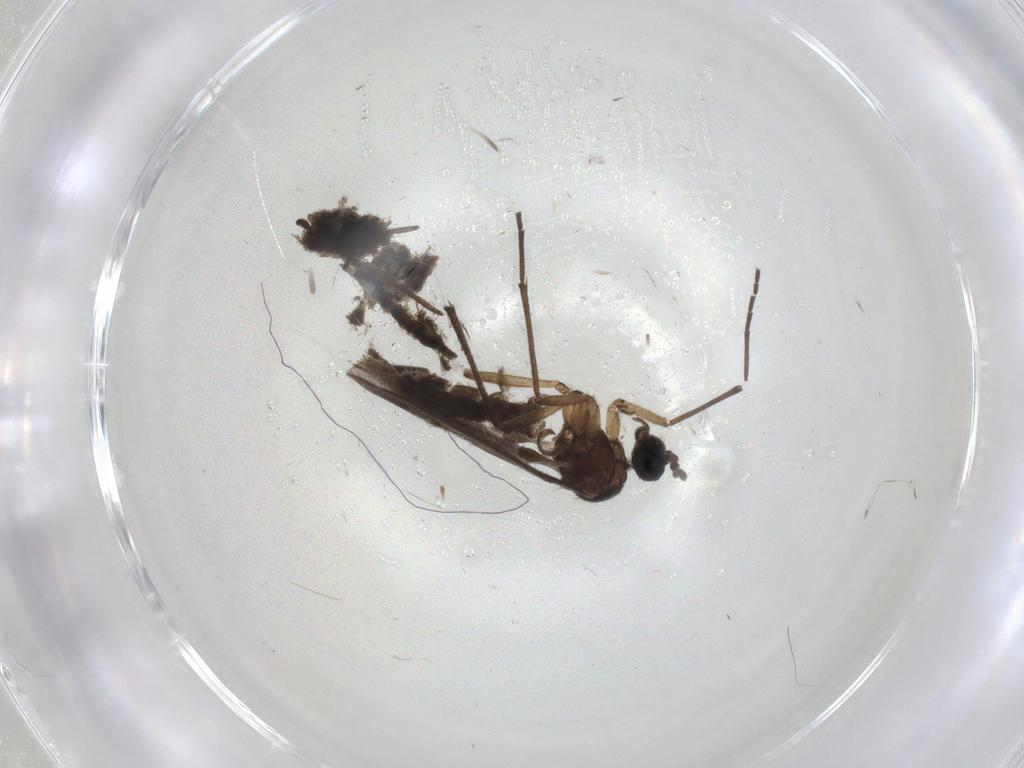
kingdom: Animalia
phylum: Arthropoda
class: Insecta
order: Diptera
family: Sciaridae
